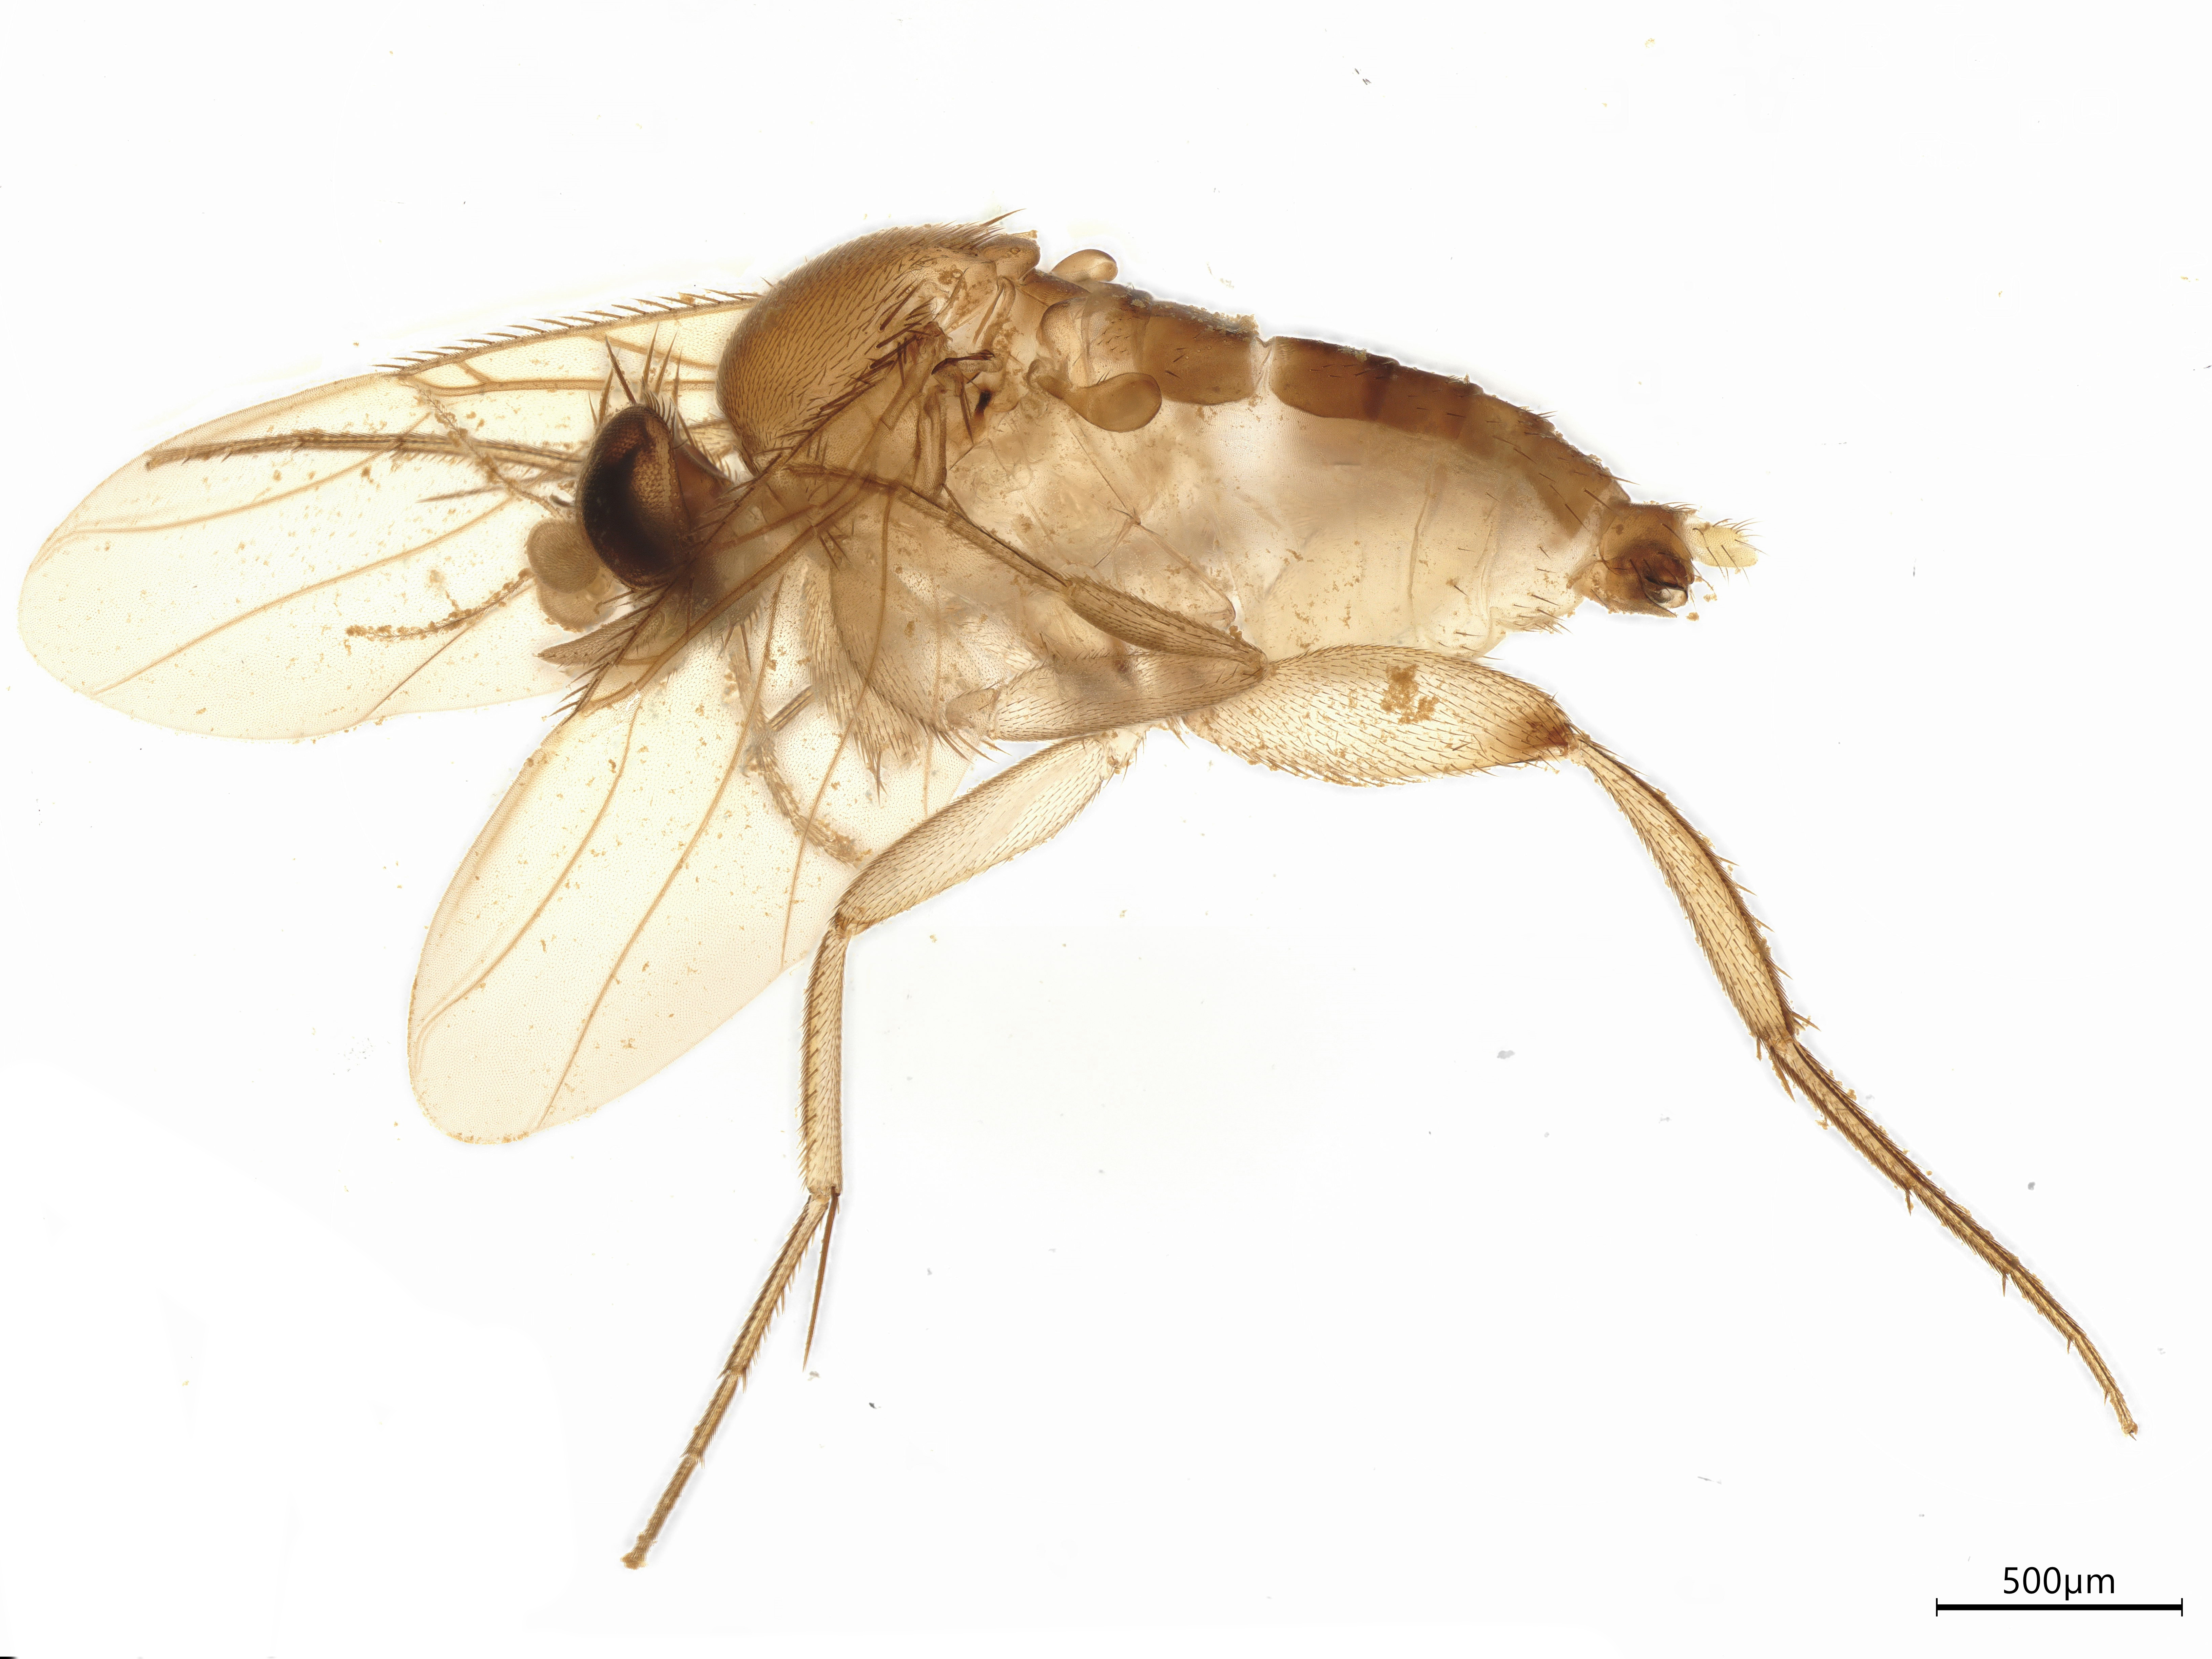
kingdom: Animalia
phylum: Arthropoda
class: Insecta
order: Diptera
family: Phoridae
